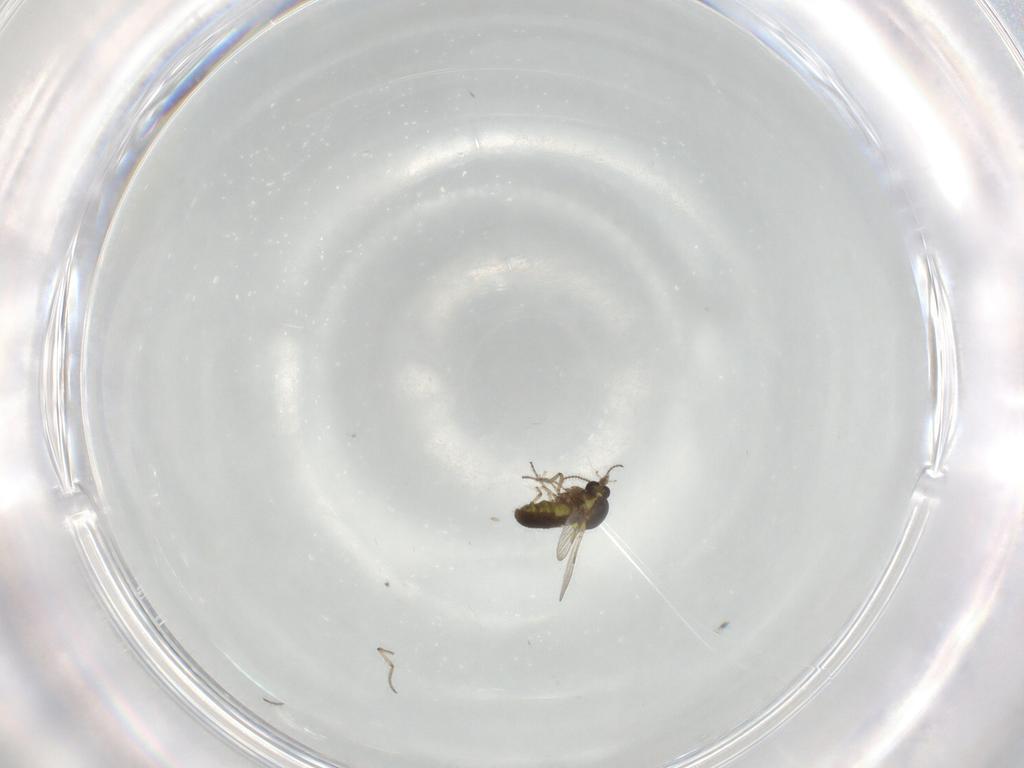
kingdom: Animalia
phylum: Arthropoda
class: Insecta
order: Diptera
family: Ceratopogonidae
